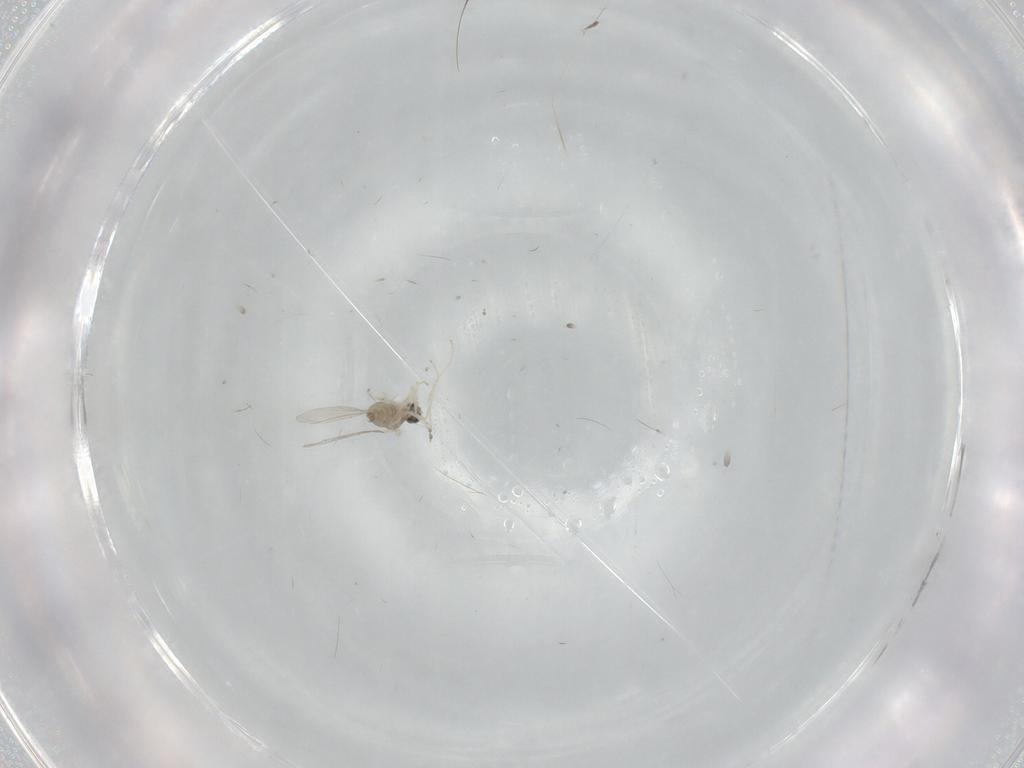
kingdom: Animalia
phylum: Arthropoda
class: Insecta
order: Diptera
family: Cecidomyiidae
